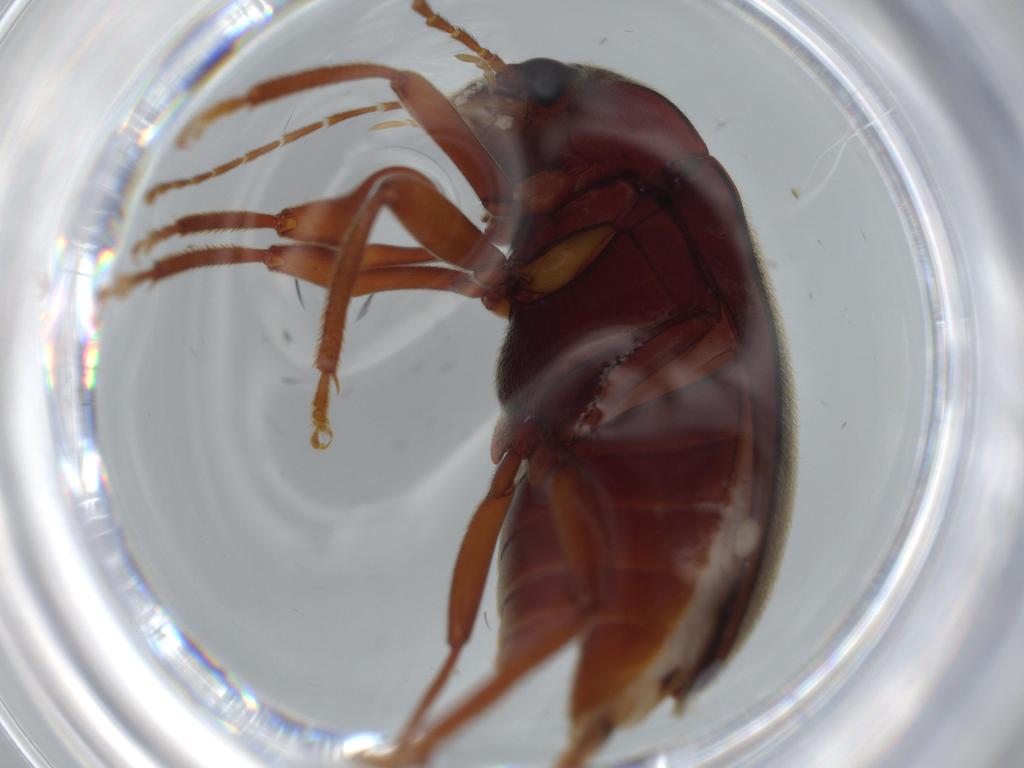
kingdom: Animalia
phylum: Arthropoda
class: Insecta
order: Coleoptera
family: Ptilodactylidae
